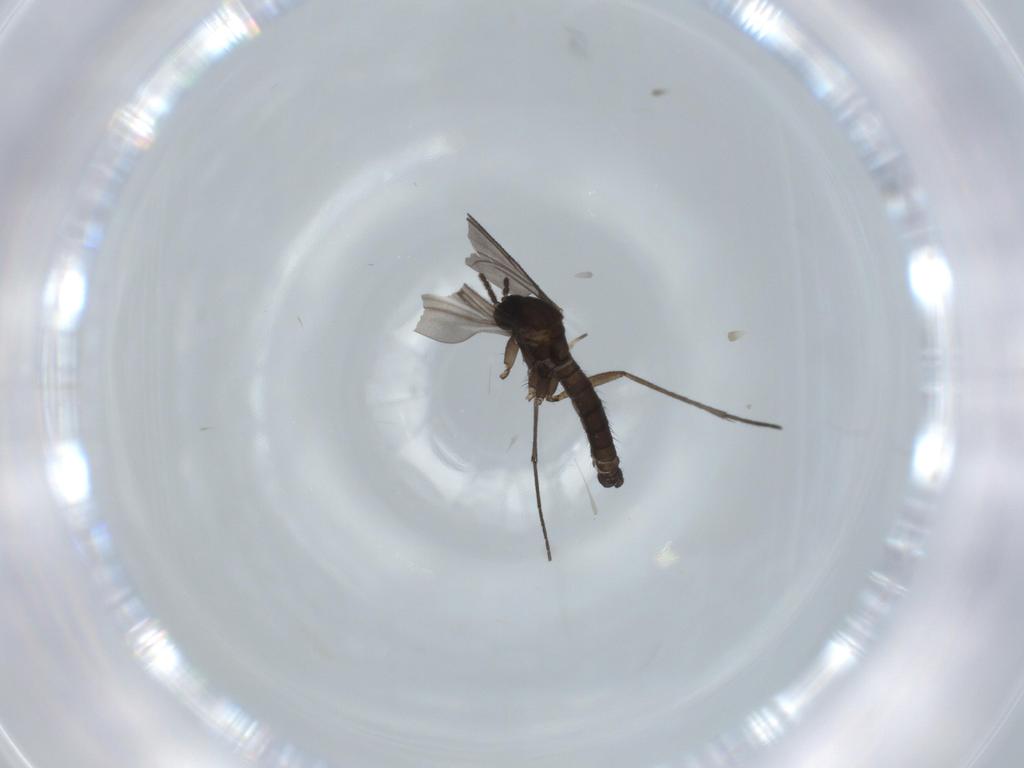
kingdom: Animalia
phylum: Arthropoda
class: Insecta
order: Diptera
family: Sciaridae
